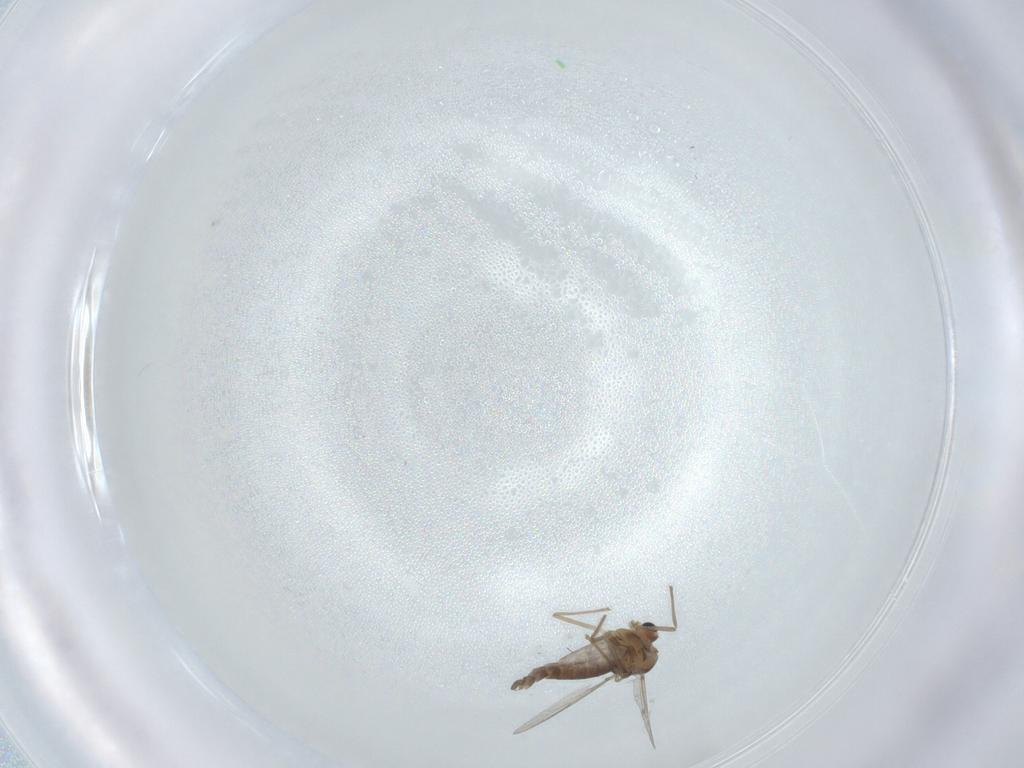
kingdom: Animalia
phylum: Arthropoda
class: Insecta
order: Diptera
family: Chironomidae
